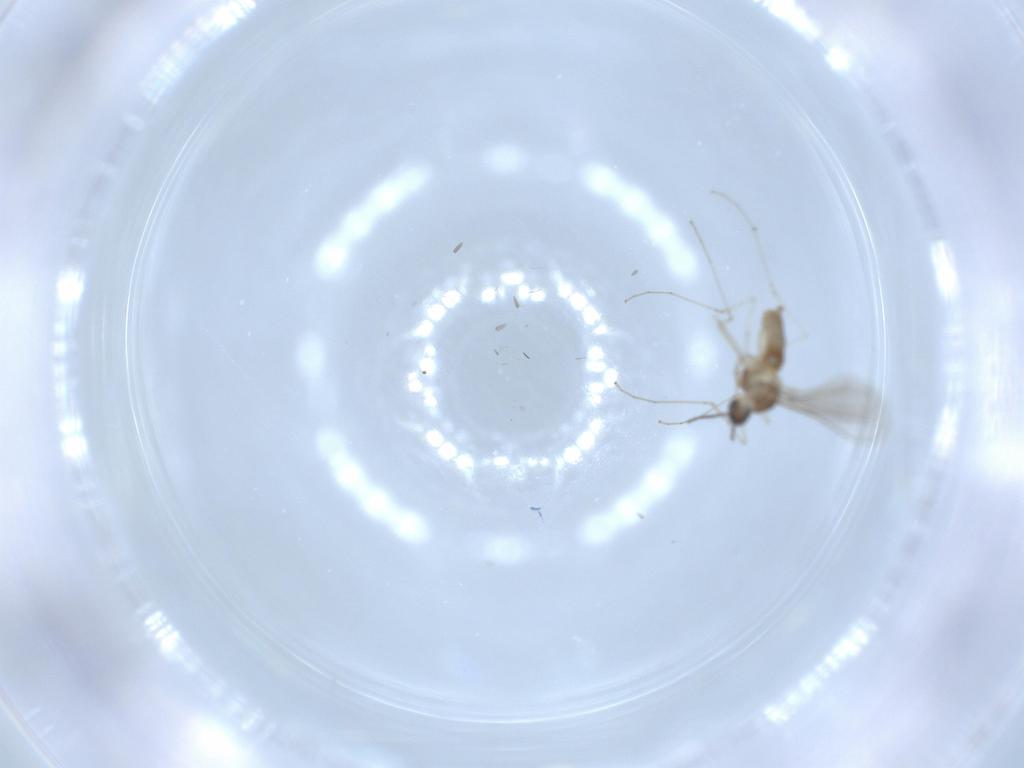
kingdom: Animalia
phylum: Arthropoda
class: Insecta
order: Diptera
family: Cecidomyiidae
